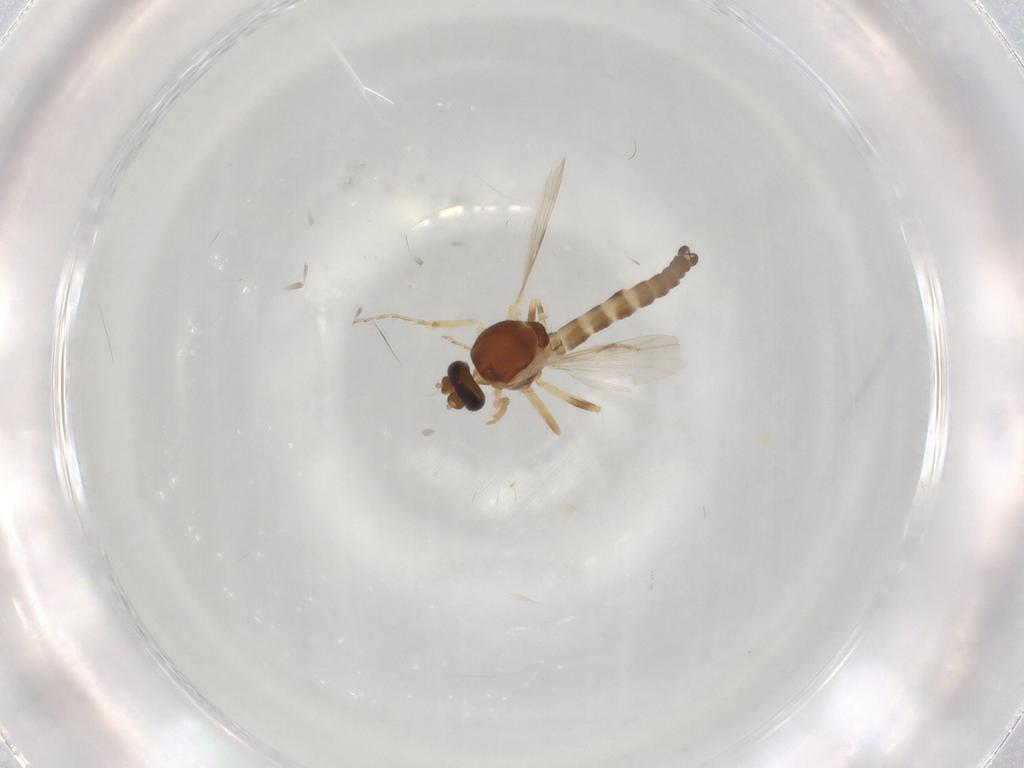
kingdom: Animalia
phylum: Arthropoda
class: Insecta
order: Diptera
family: Ceratopogonidae
